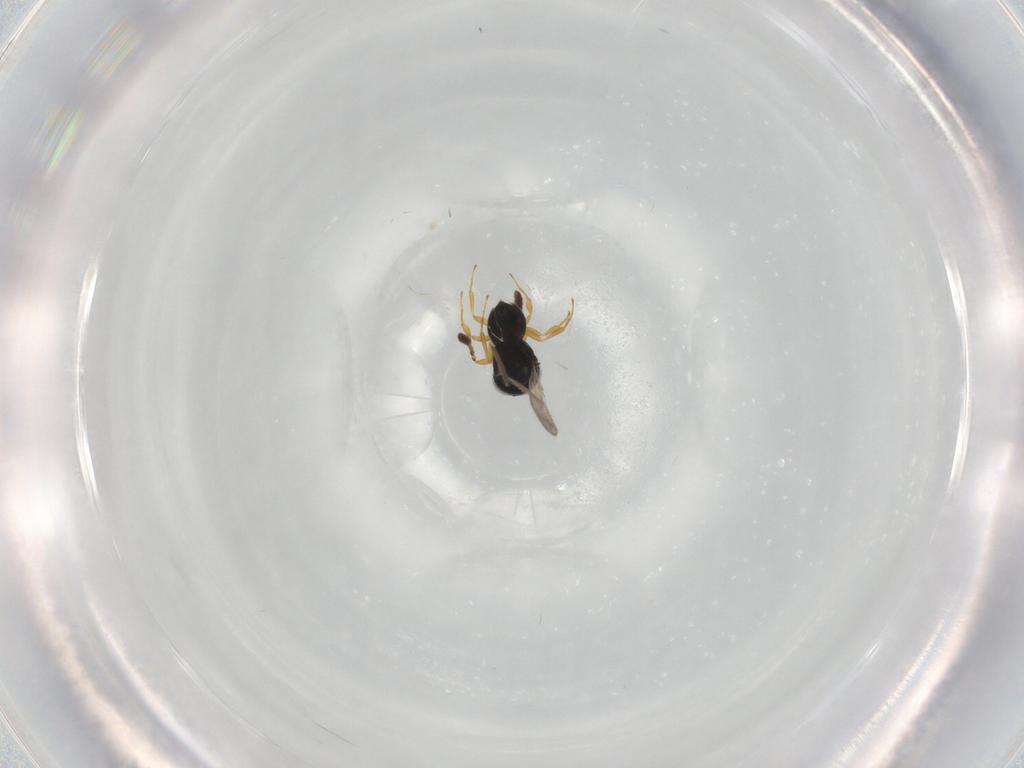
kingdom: Animalia
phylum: Arthropoda
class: Insecta
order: Hymenoptera
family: Scelionidae
